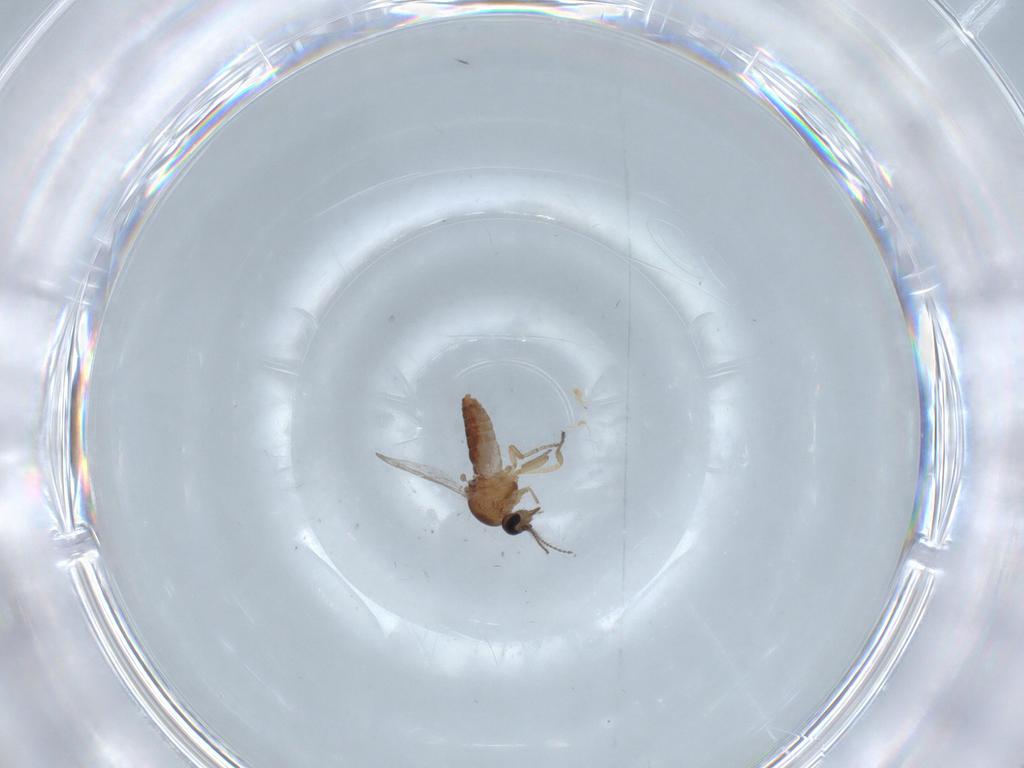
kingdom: Animalia
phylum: Arthropoda
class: Insecta
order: Diptera
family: Ceratopogonidae
